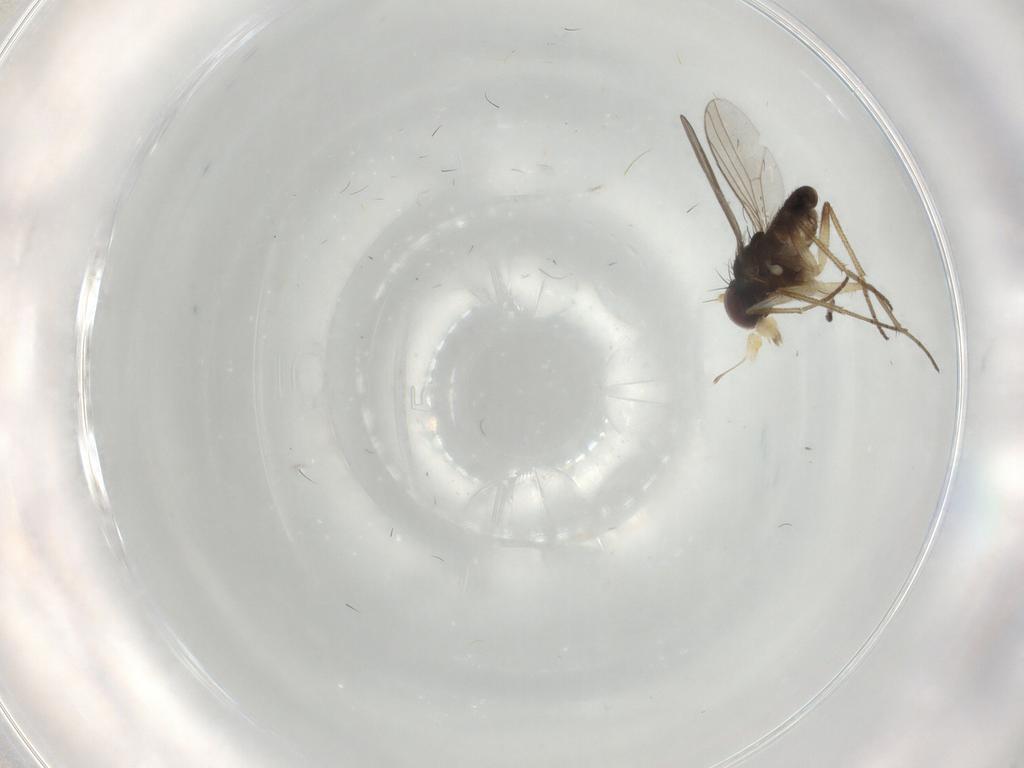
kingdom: Animalia
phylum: Arthropoda
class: Insecta
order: Diptera
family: Dolichopodidae
